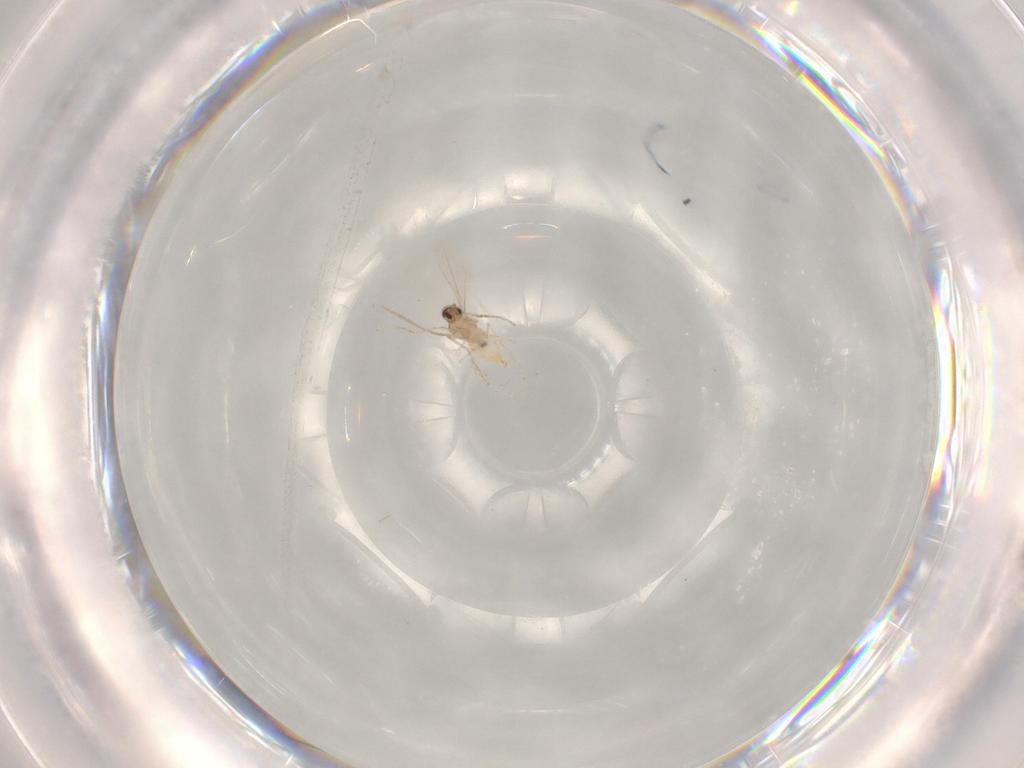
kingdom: Animalia
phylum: Arthropoda
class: Insecta
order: Diptera
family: Cecidomyiidae
